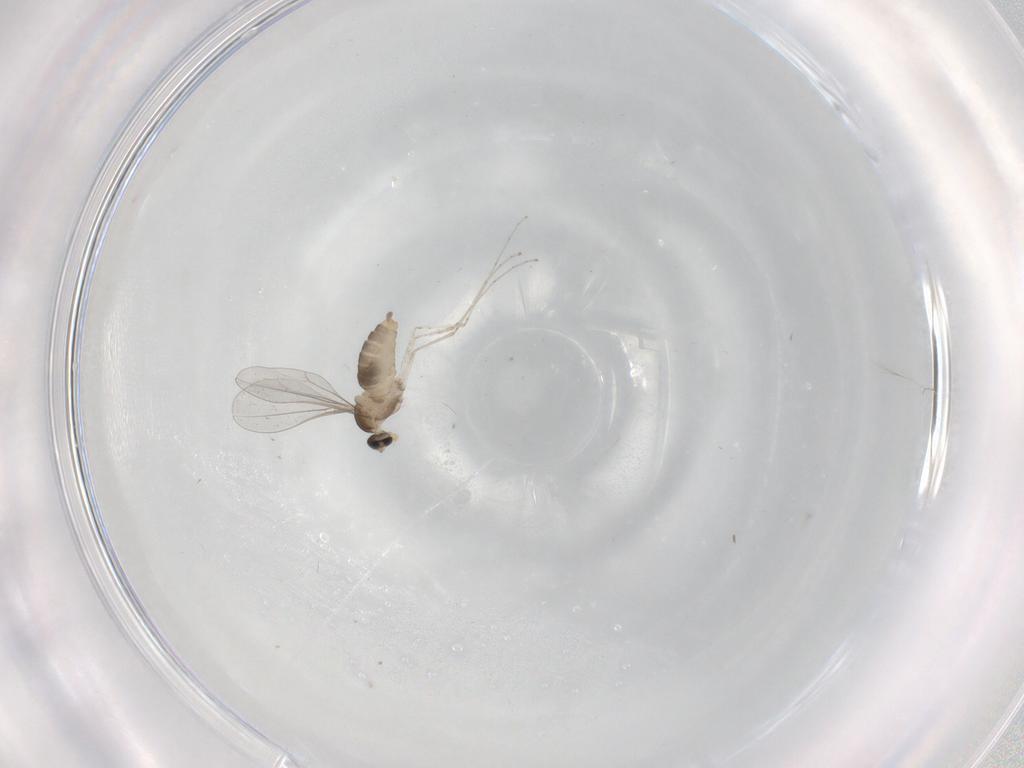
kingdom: Animalia
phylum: Arthropoda
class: Insecta
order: Diptera
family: Cecidomyiidae
